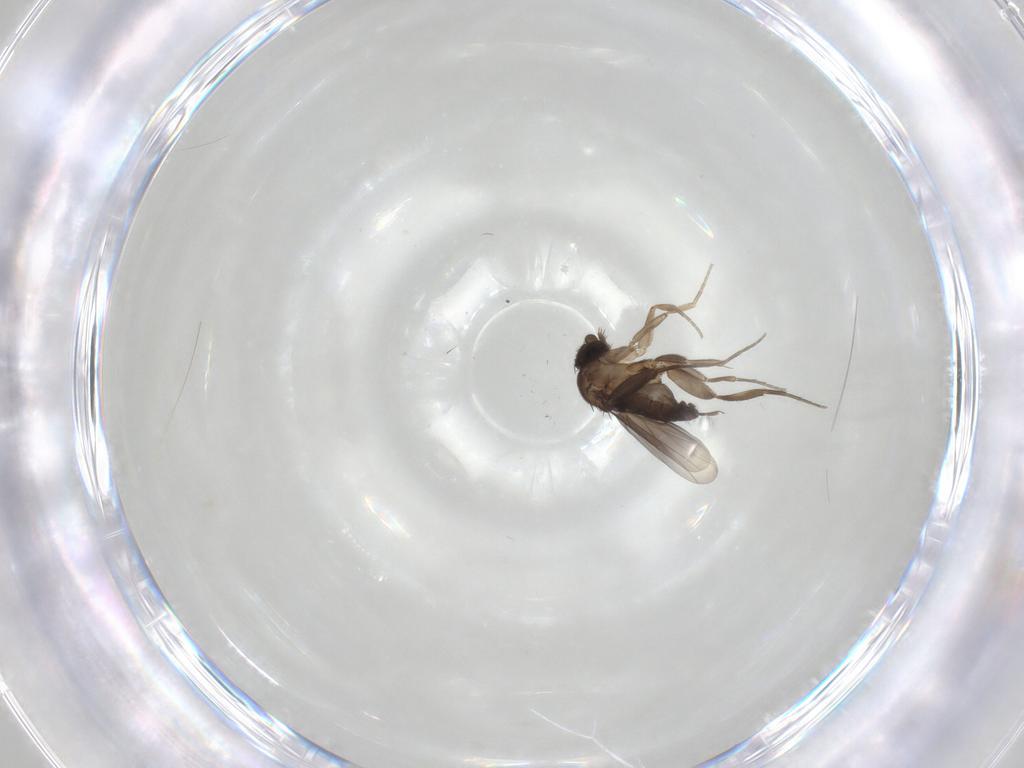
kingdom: Animalia
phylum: Arthropoda
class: Insecta
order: Diptera
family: Phoridae
